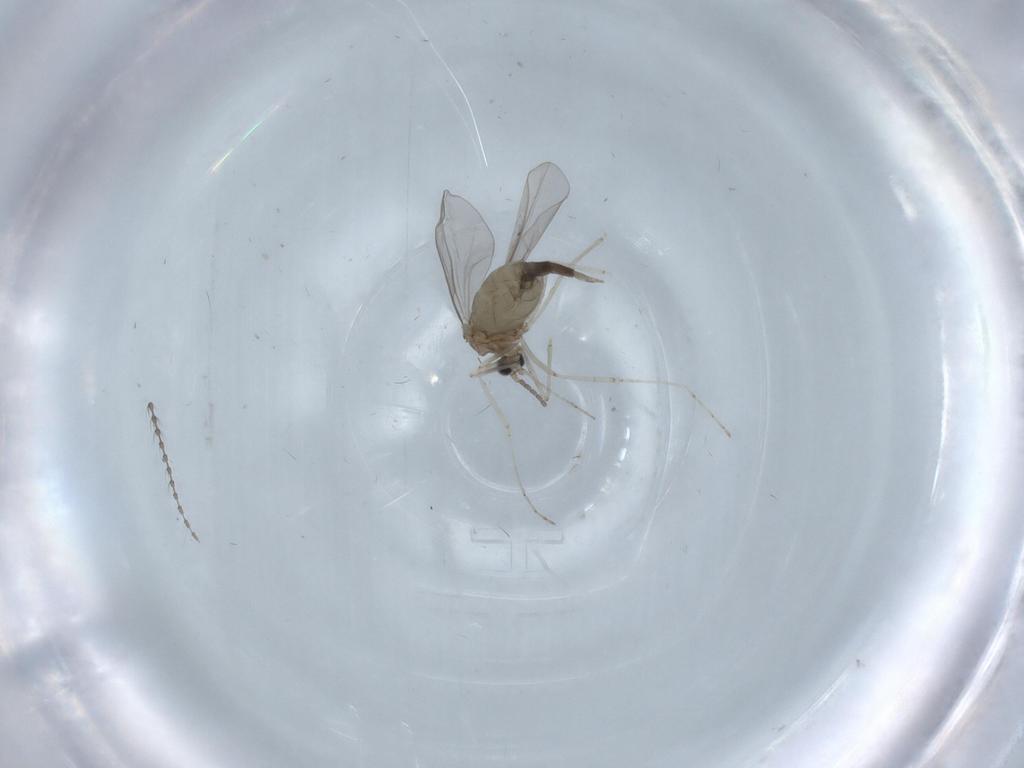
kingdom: Animalia
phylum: Arthropoda
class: Insecta
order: Diptera
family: Cecidomyiidae
